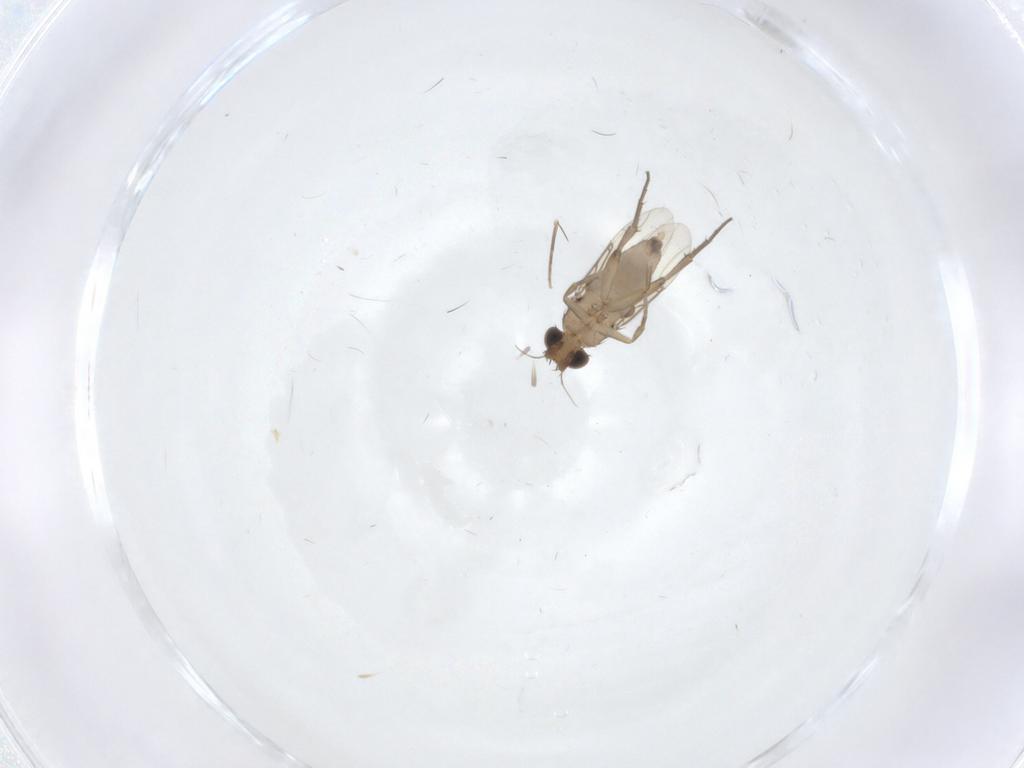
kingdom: Animalia
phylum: Arthropoda
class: Insecta
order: Diptera
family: Phoridae
